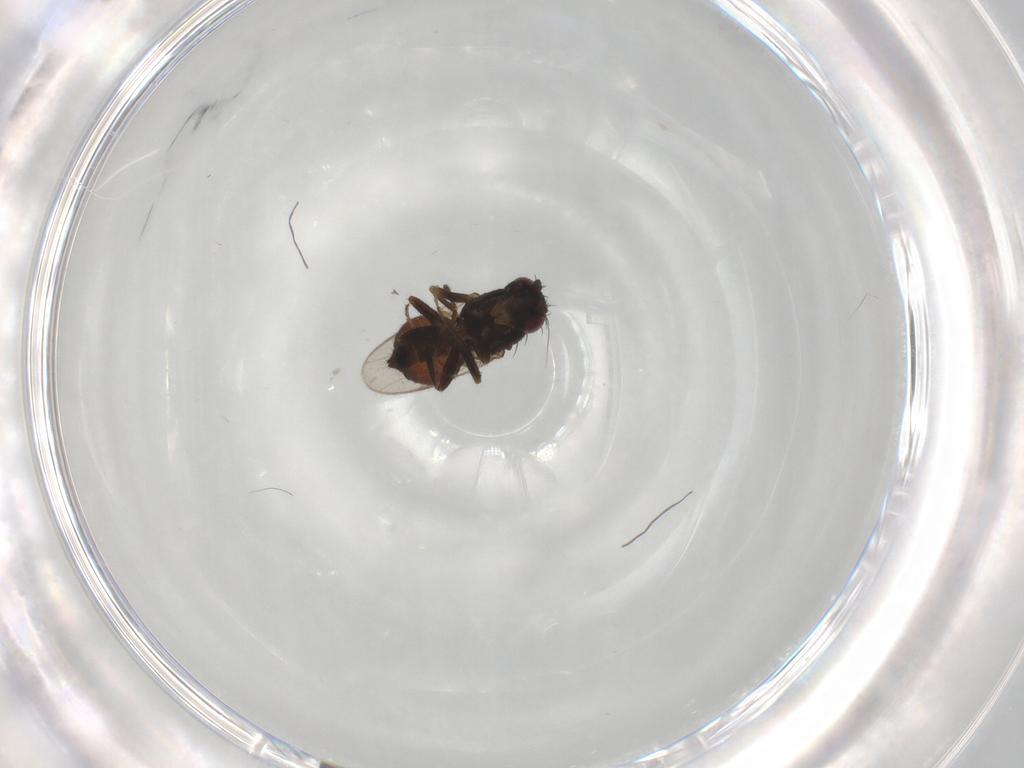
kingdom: Animalia
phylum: Arthropoda
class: Insecta
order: Diptera
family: Sphaeroceridae
